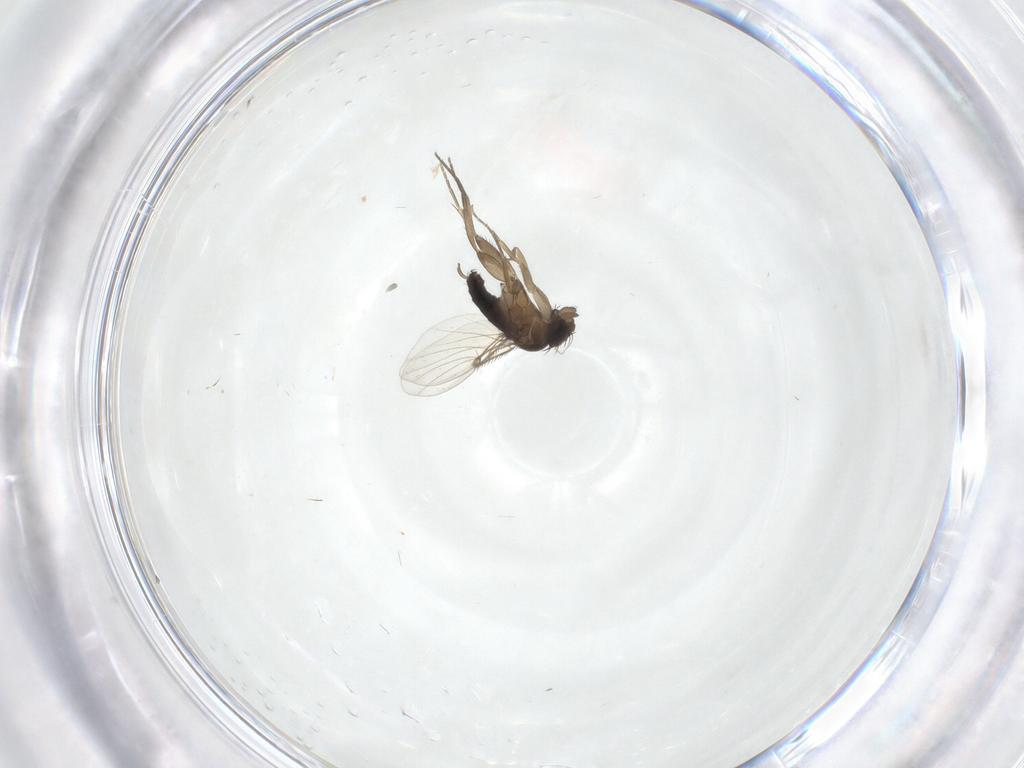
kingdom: Animalia
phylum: Arthropoda
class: Insecta
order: Diptera
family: Phoridae
